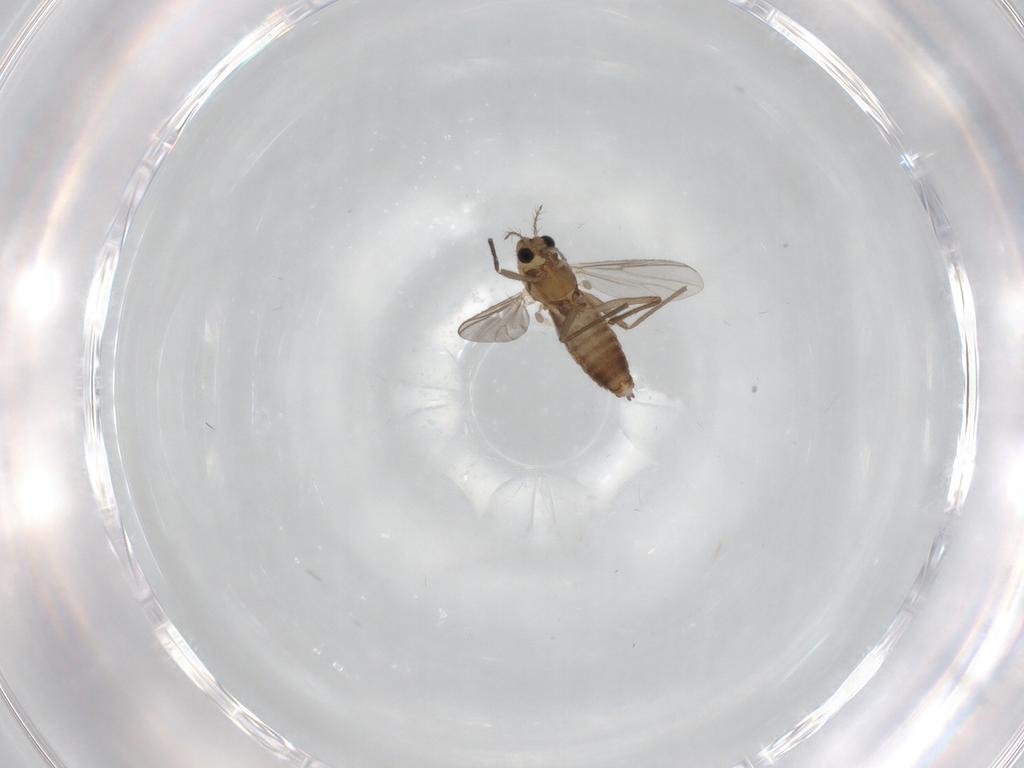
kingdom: Animalia
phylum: Arthropoda
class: Insecta
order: Diptera
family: Chironomidae
